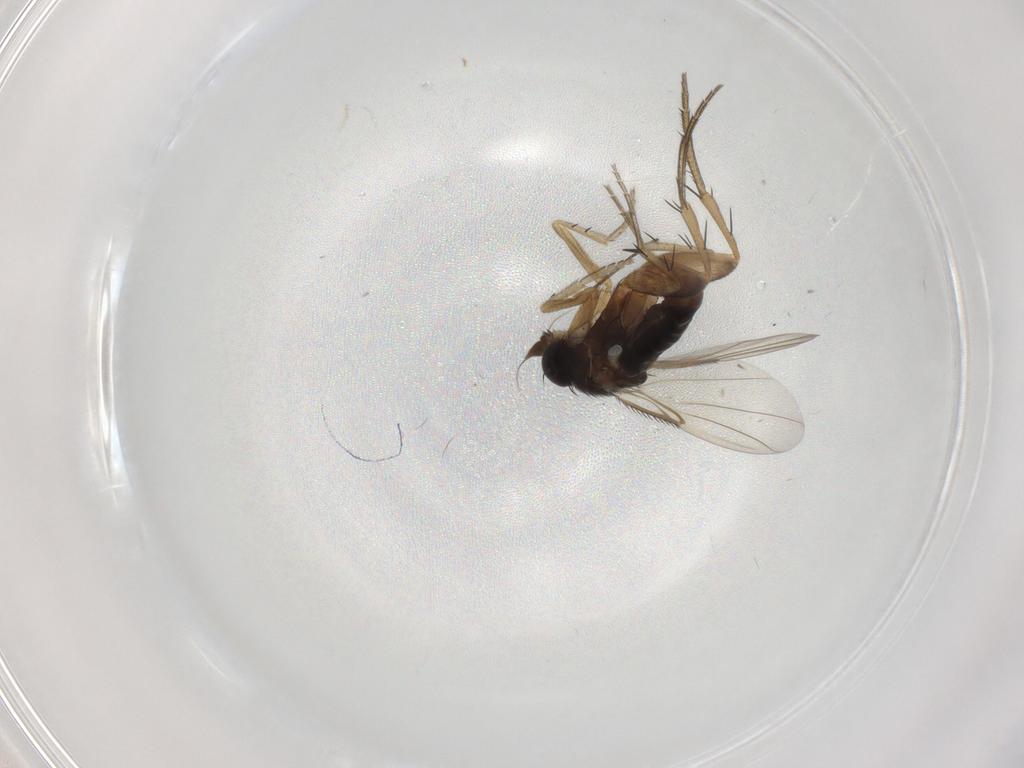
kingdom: Animalia
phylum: Arthropoda
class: Insecta
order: Diptera
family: Phoridae
